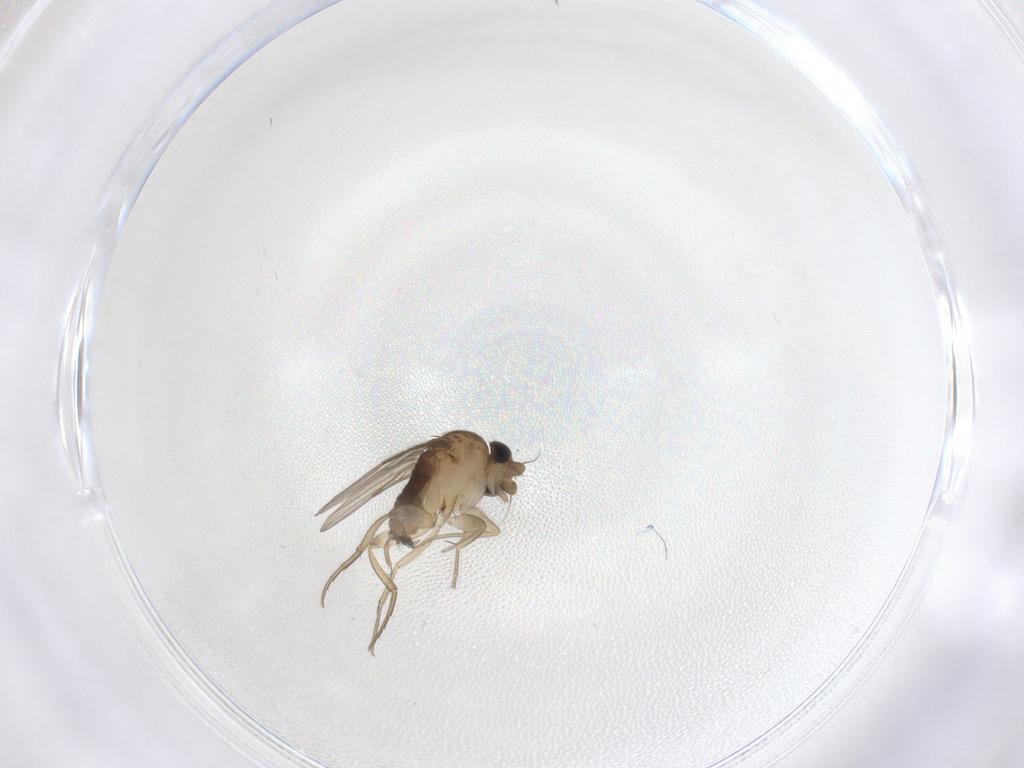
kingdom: Animalia
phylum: Arthropoda
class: Insecta
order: Diptera
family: Phoridae
